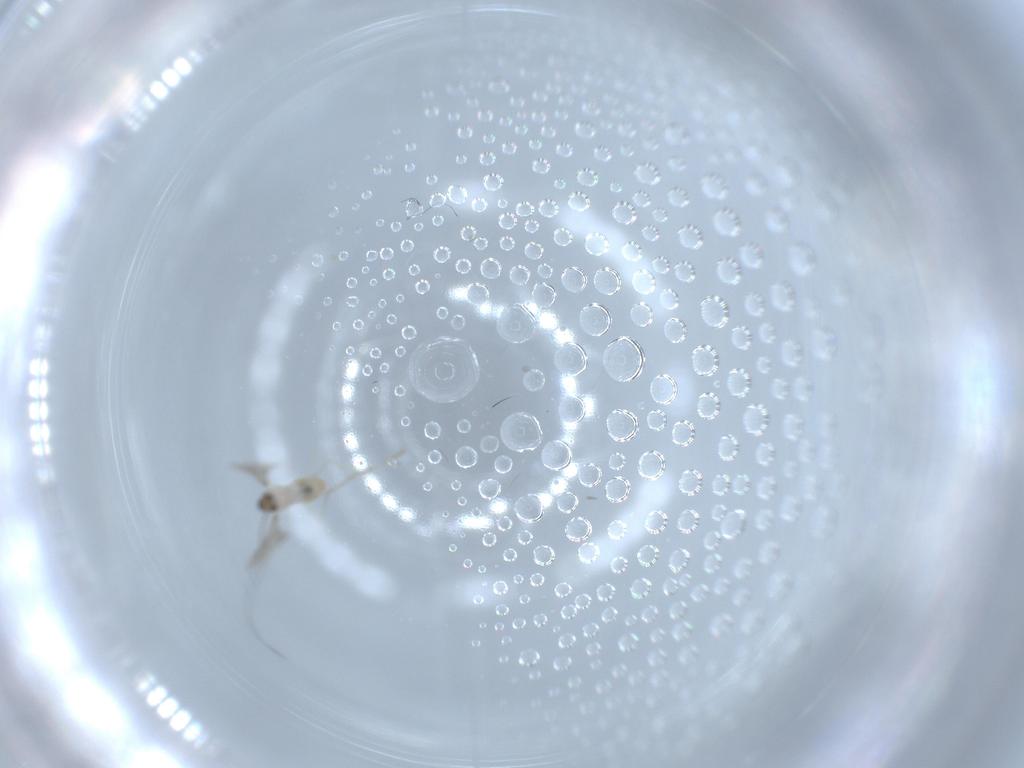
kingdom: Animalia
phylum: Arthropoda
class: Insecta
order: Diptera
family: Cecidomyiidae
